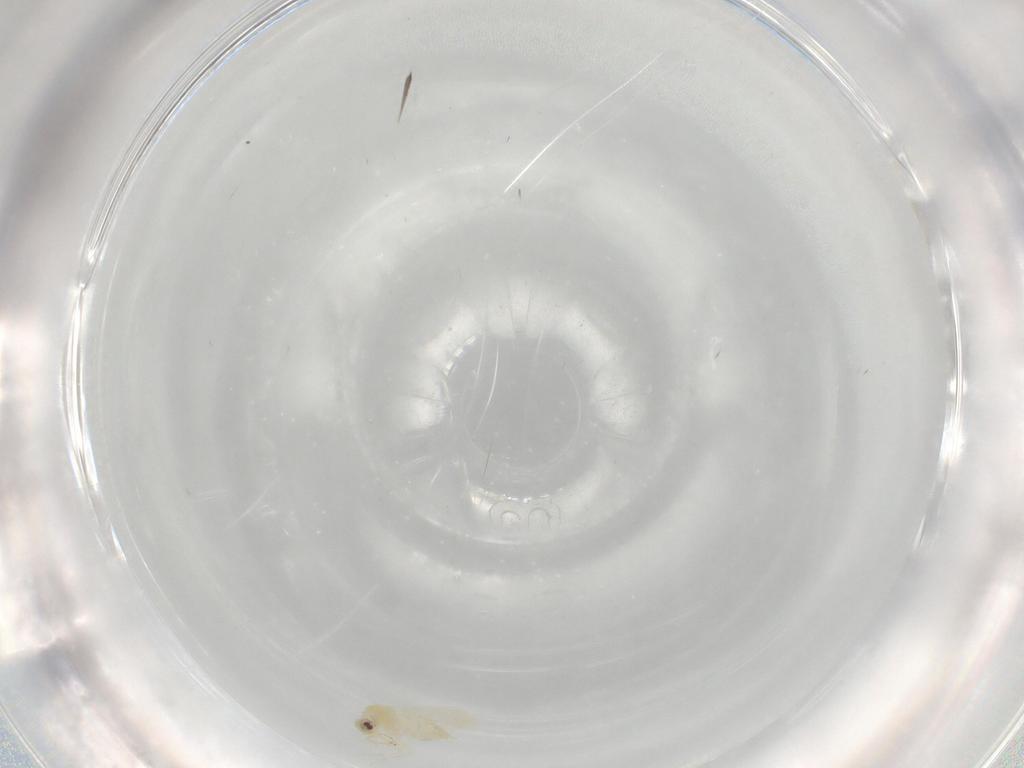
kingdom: Animalia
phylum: Arthropoda
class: Insecta
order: Hemiptera
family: Aleyrodidae
